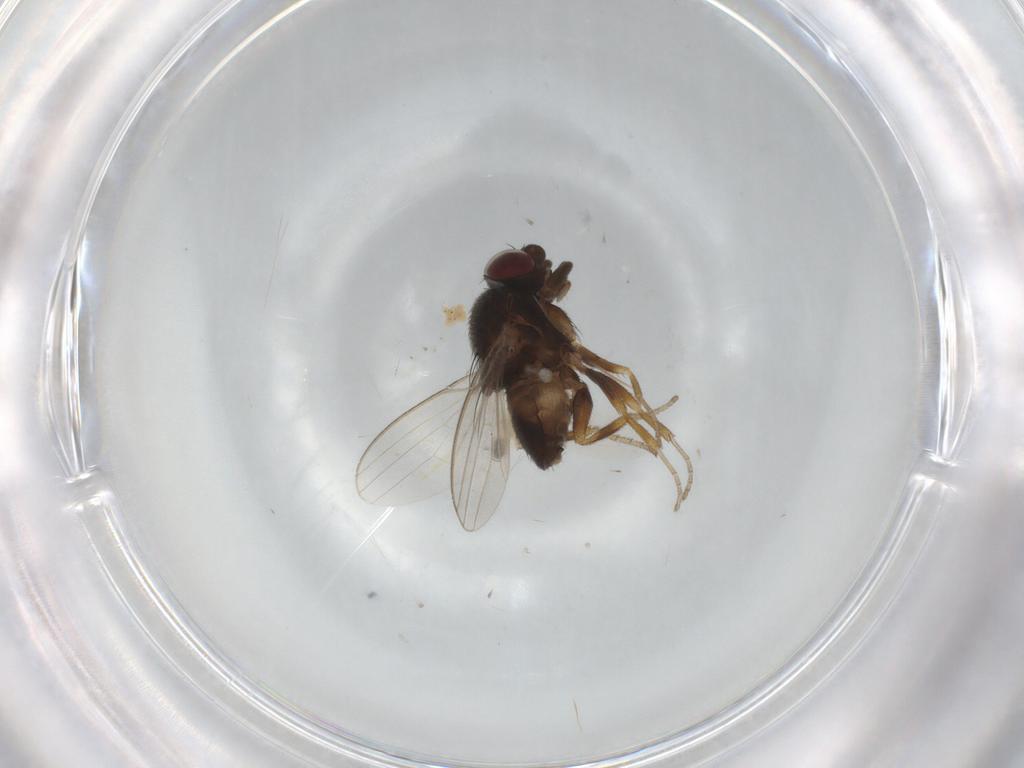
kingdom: Animalia
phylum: Arthropoda
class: Insecta
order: Diptera
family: Milichiidae
